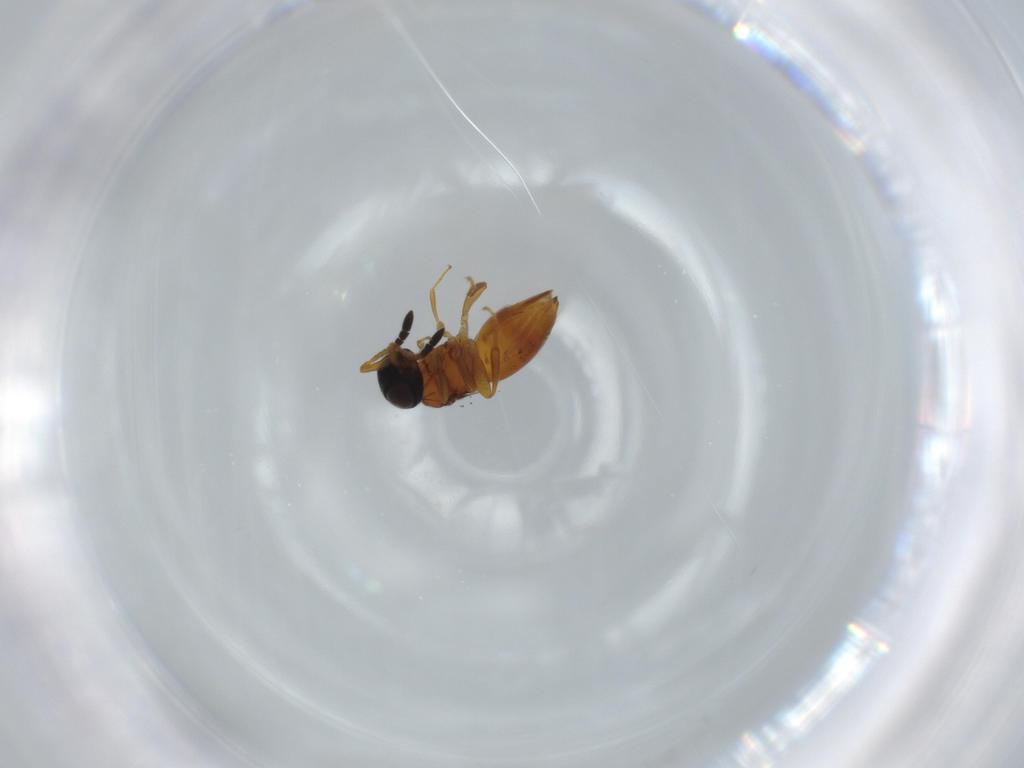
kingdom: Animalia
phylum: Arthropoda
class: Insecta
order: Hymenoptera
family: Ceraphronidae
